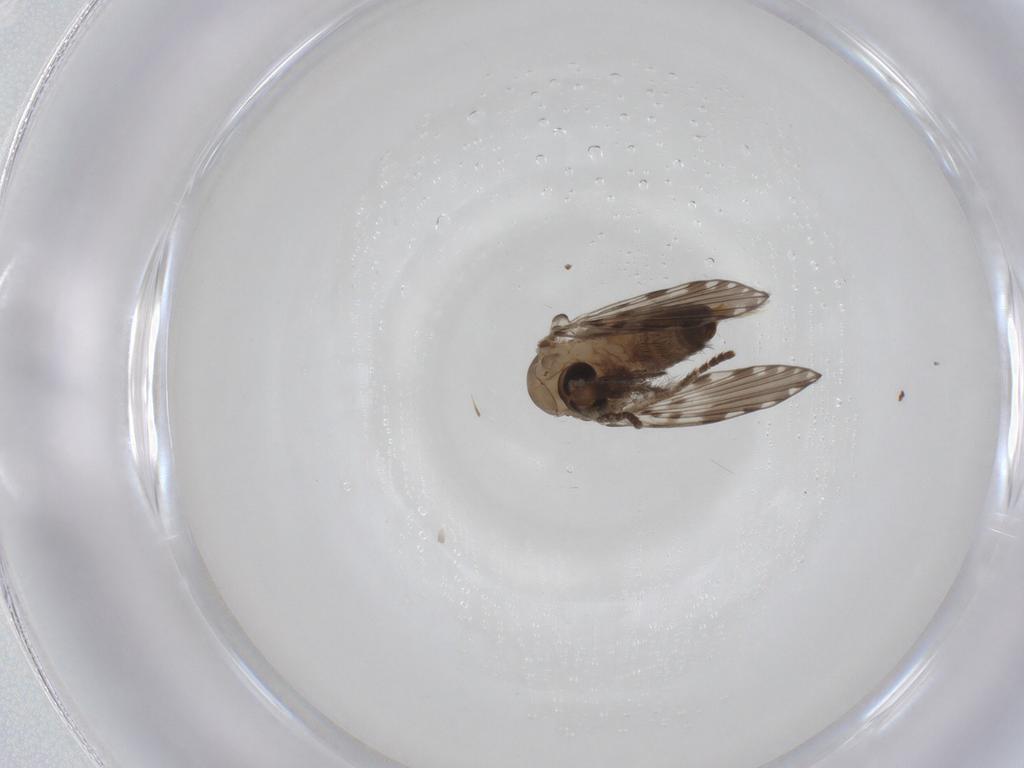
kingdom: Animalia
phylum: Arthropoda
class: Insecta
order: Diptera
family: Psychodidae
